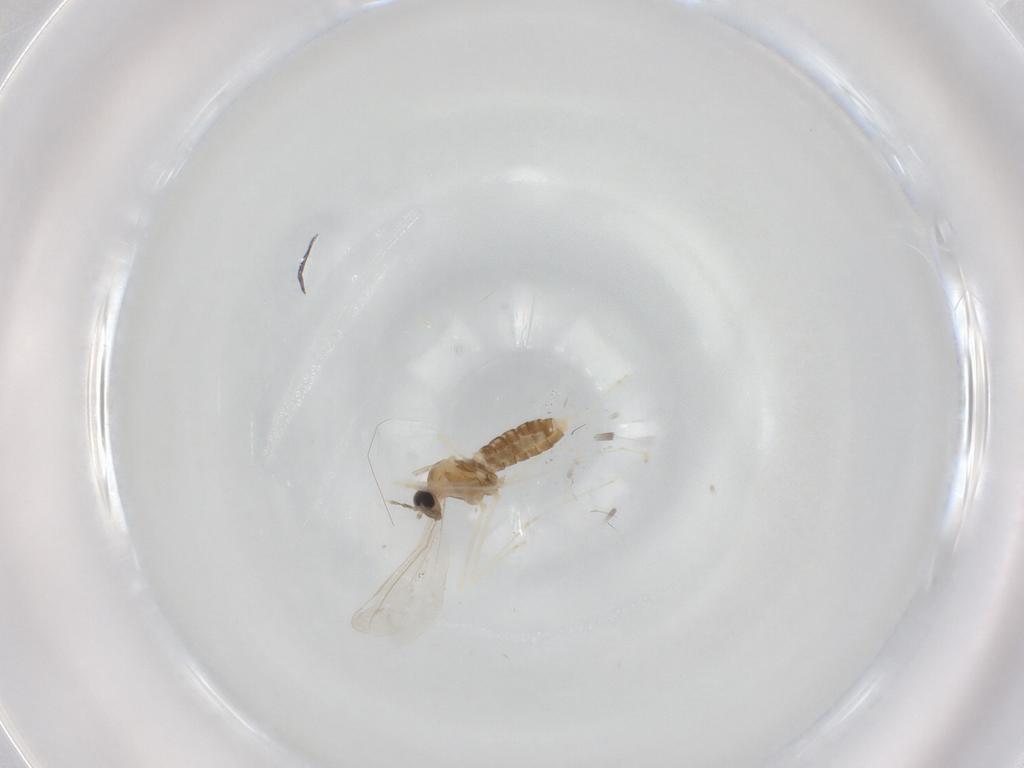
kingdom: Animalia
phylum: Arthropoda
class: Insecta
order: Diptera
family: Cecidomyiidae
